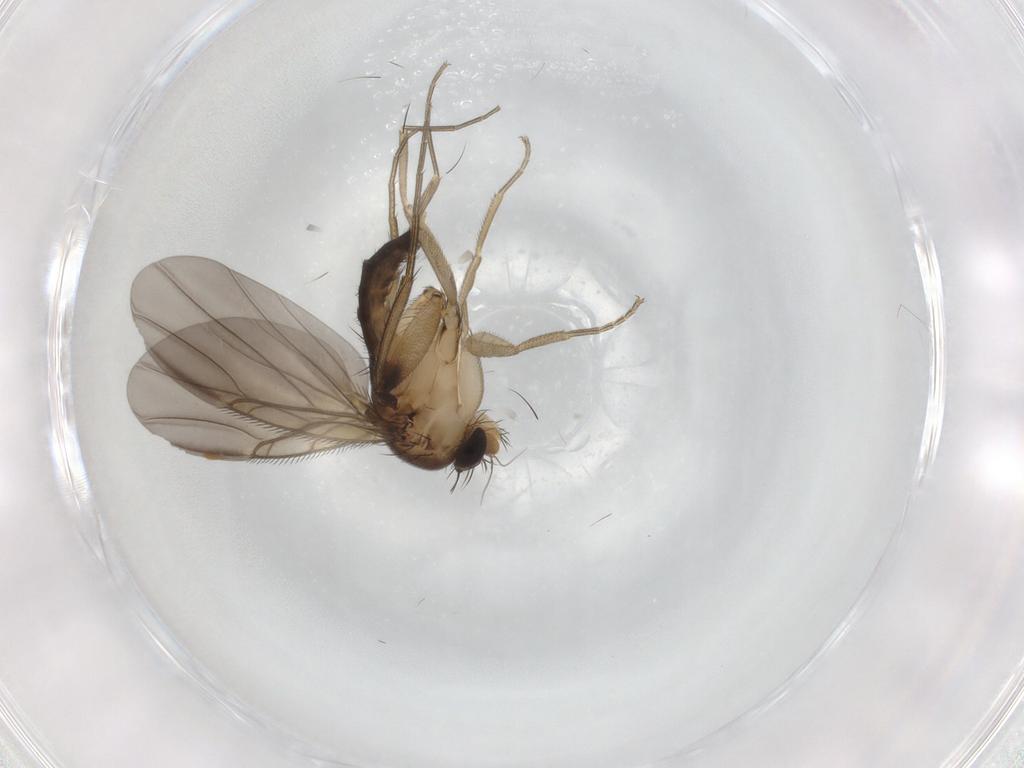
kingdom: Animalia
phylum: Arthropoda
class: Insecta
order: Diptera
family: Phoridae
